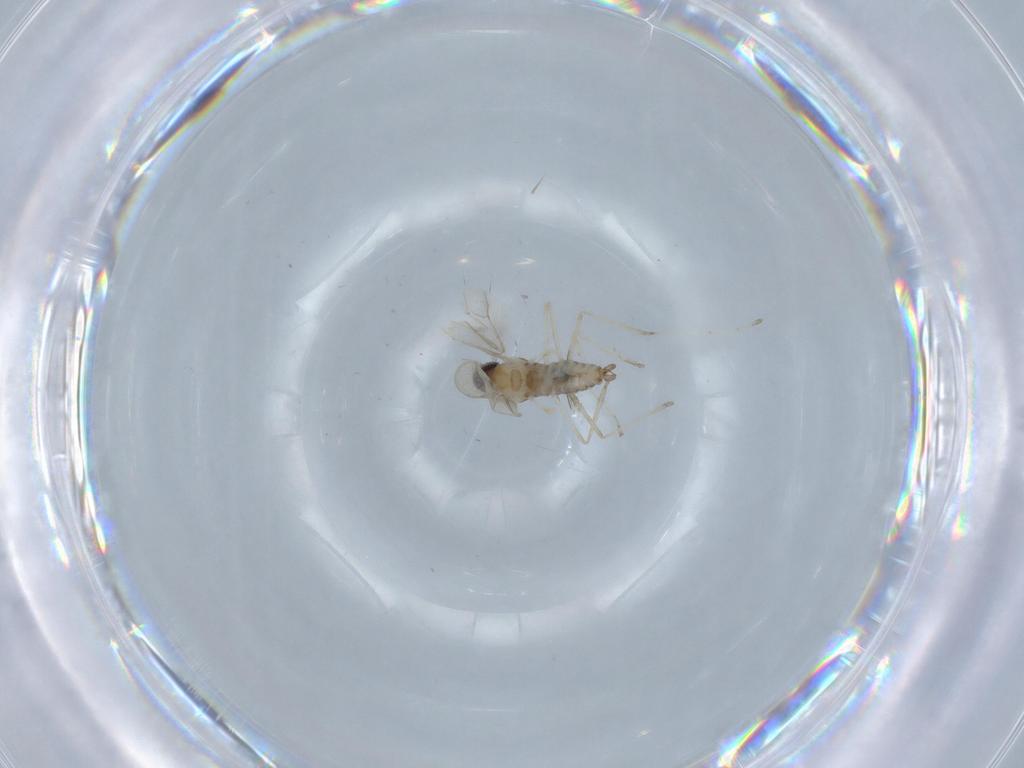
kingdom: Animalia
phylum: Arthropoda
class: Insecta
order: Diptera
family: Cecidomyiidae
